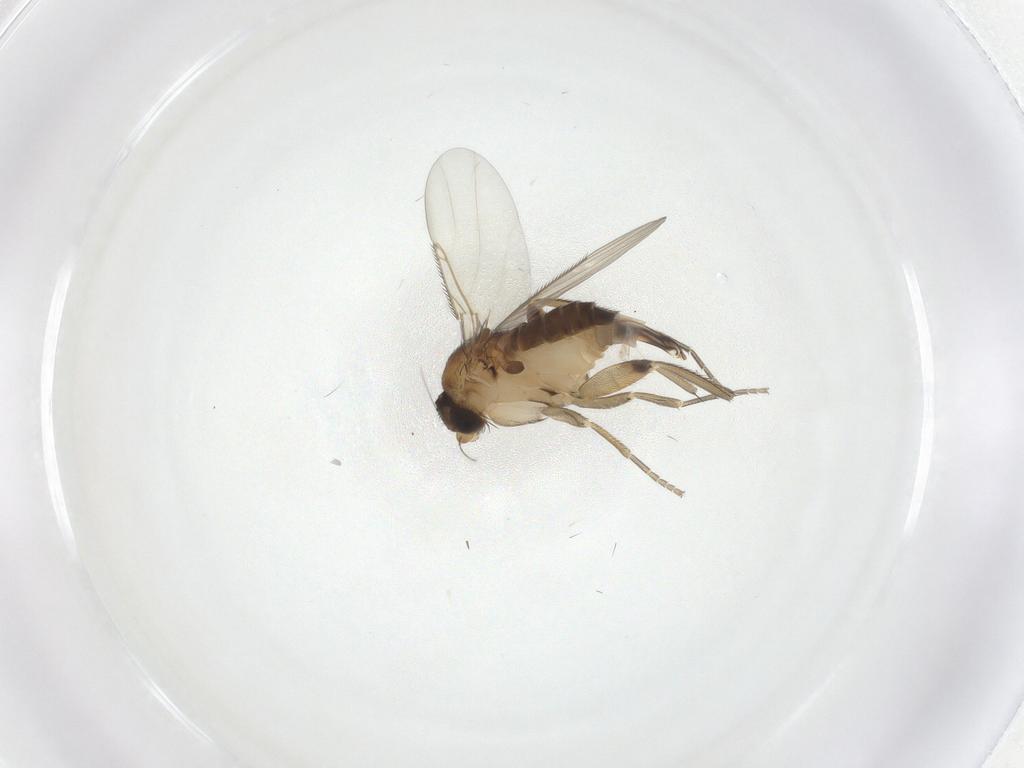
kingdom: Animalia
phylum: Arthropoda
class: Insecta
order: Diptera
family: Phoridae
